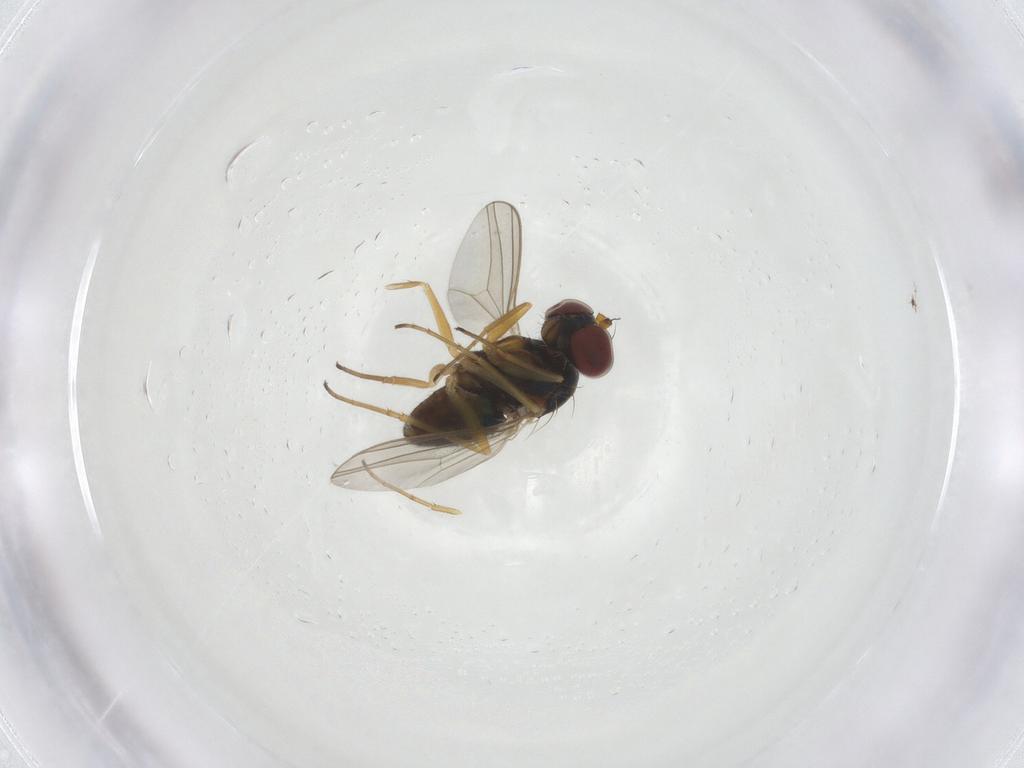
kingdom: Animalia
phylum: Arthropoda
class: Insecta
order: Diptera
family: Dolichopodidae
